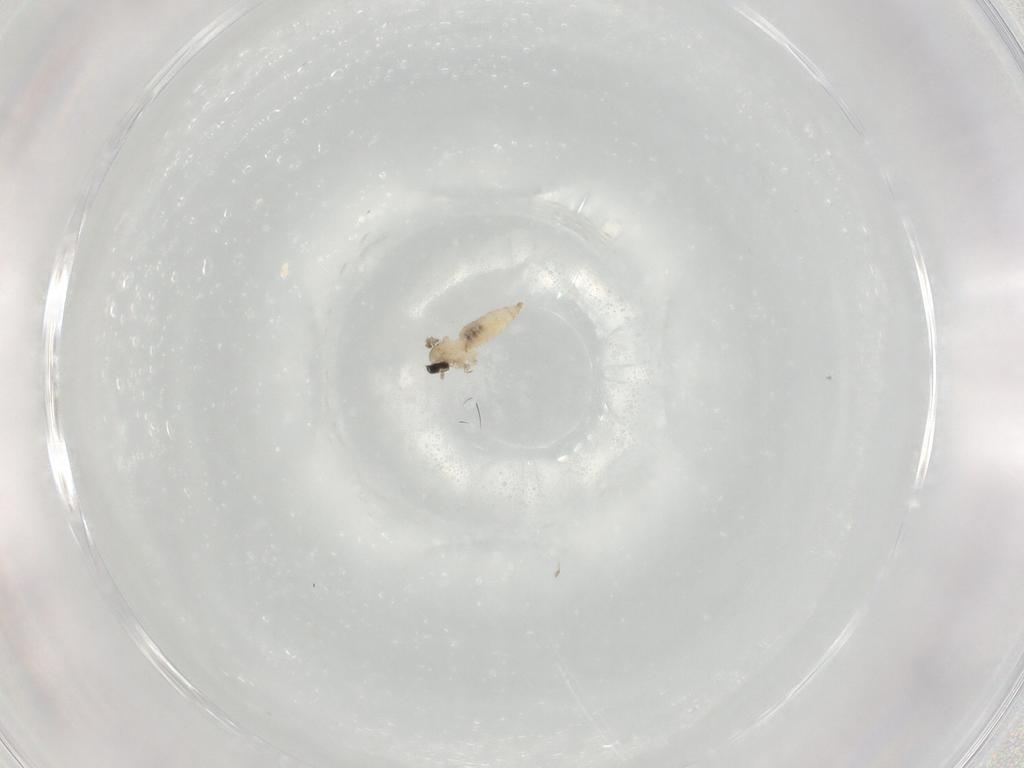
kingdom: Animalia
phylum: Arthropoda
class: Insecta
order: Diptera
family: Cecidomyiidae
